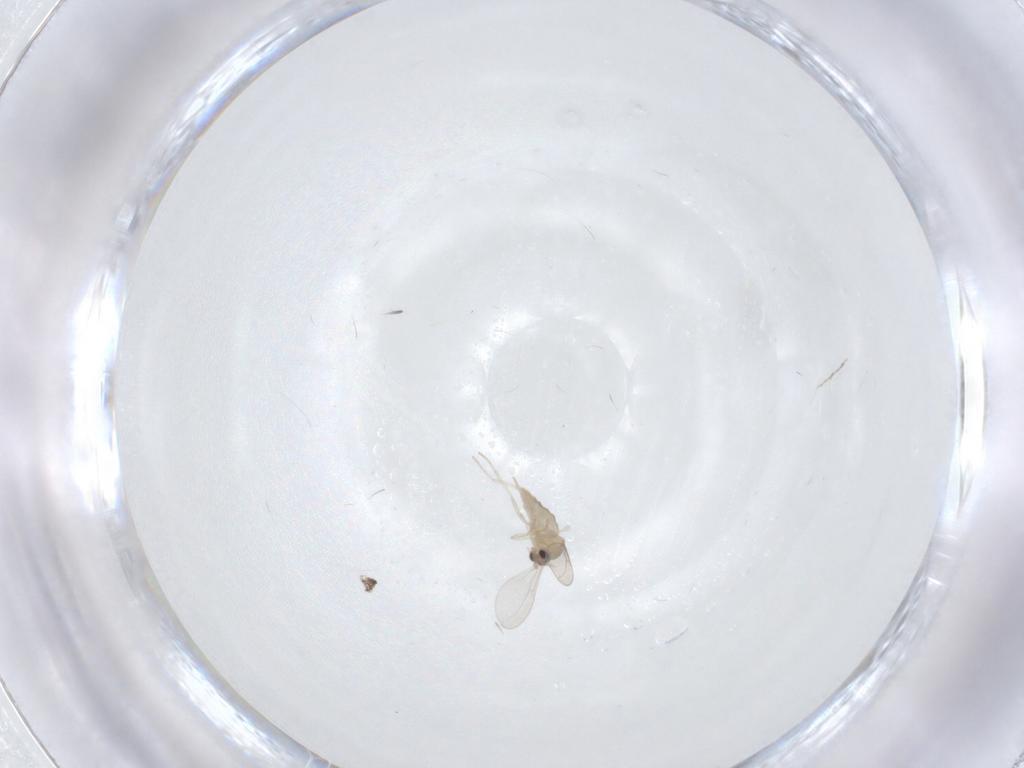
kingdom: Animalia
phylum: Arthropoda
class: Insecta
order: Diptera
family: Cecidomyiidae
